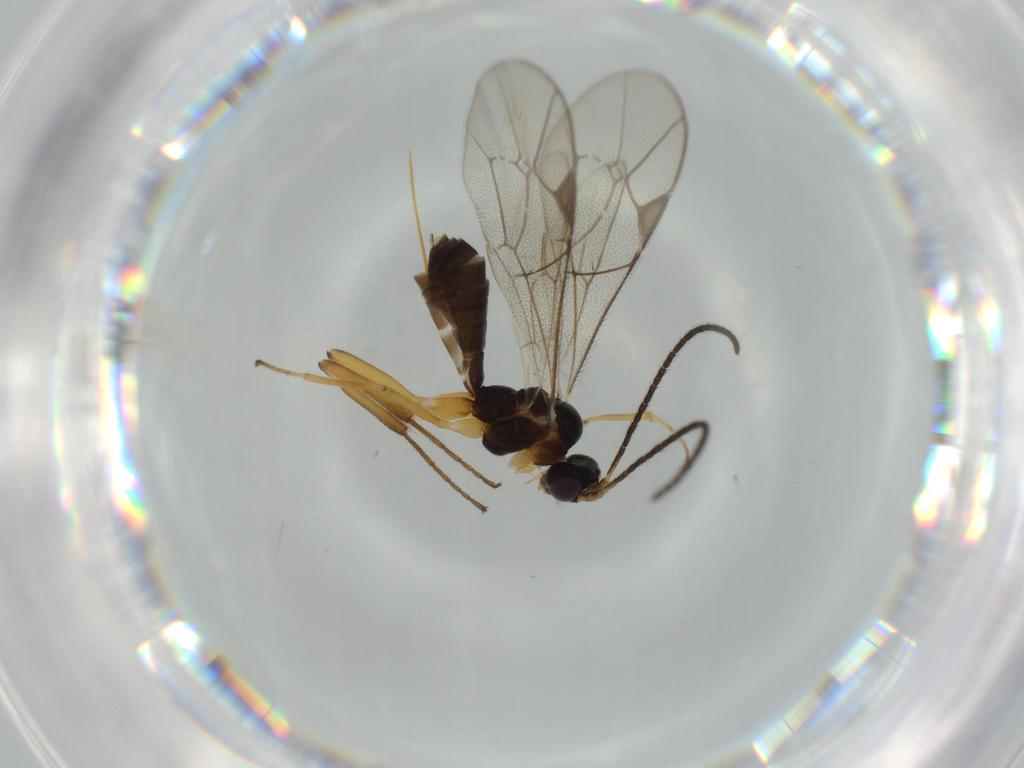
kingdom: Animalia
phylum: Arthropoda
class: Insecta
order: Hymenoptera
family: Ichneumonidae
